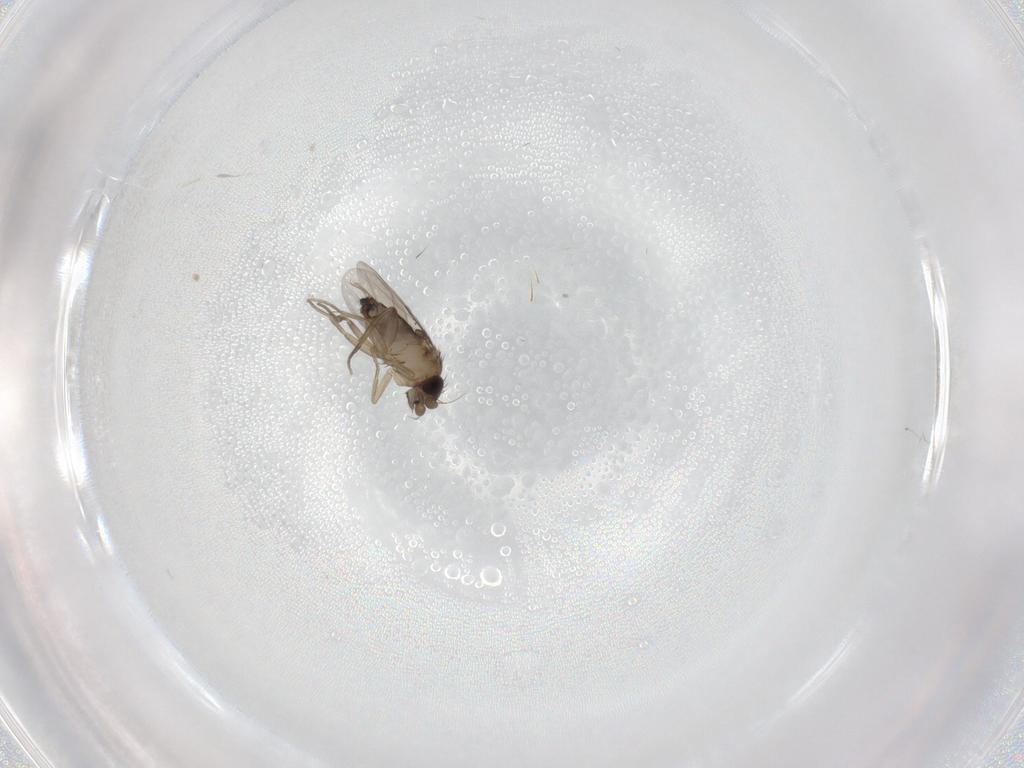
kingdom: Animalia
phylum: Arthropoda
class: Insecta
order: Diptera
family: Phoridae
